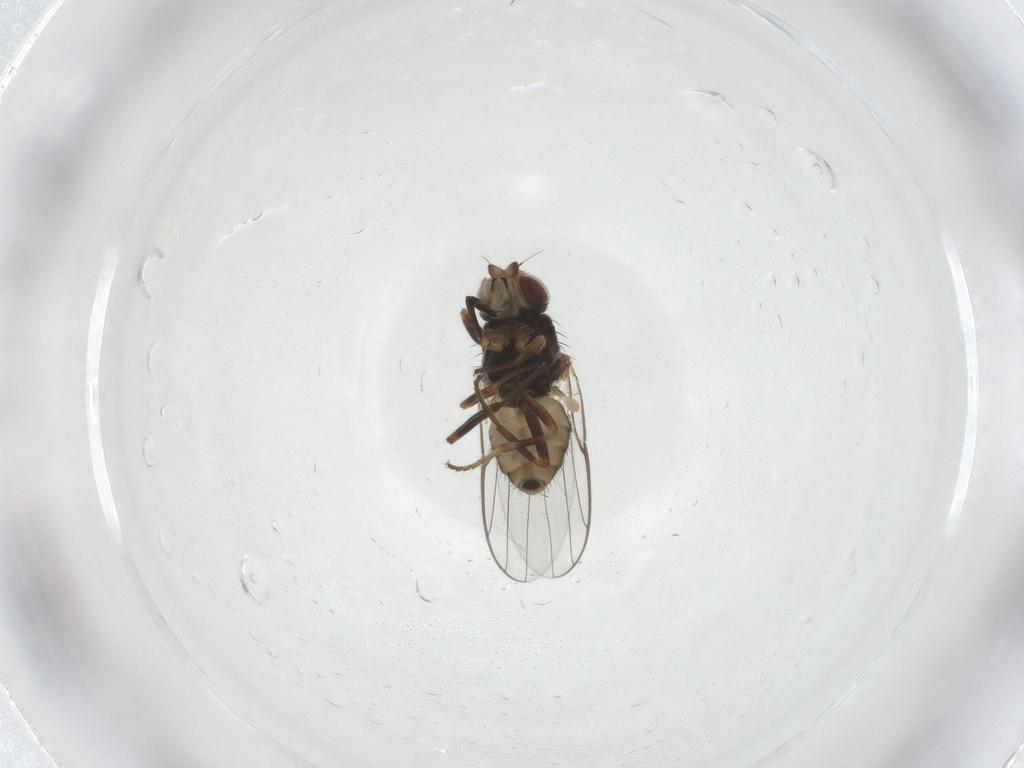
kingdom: Animalia
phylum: Arthropoda
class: Insecta
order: Diptera
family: Chloropidae
